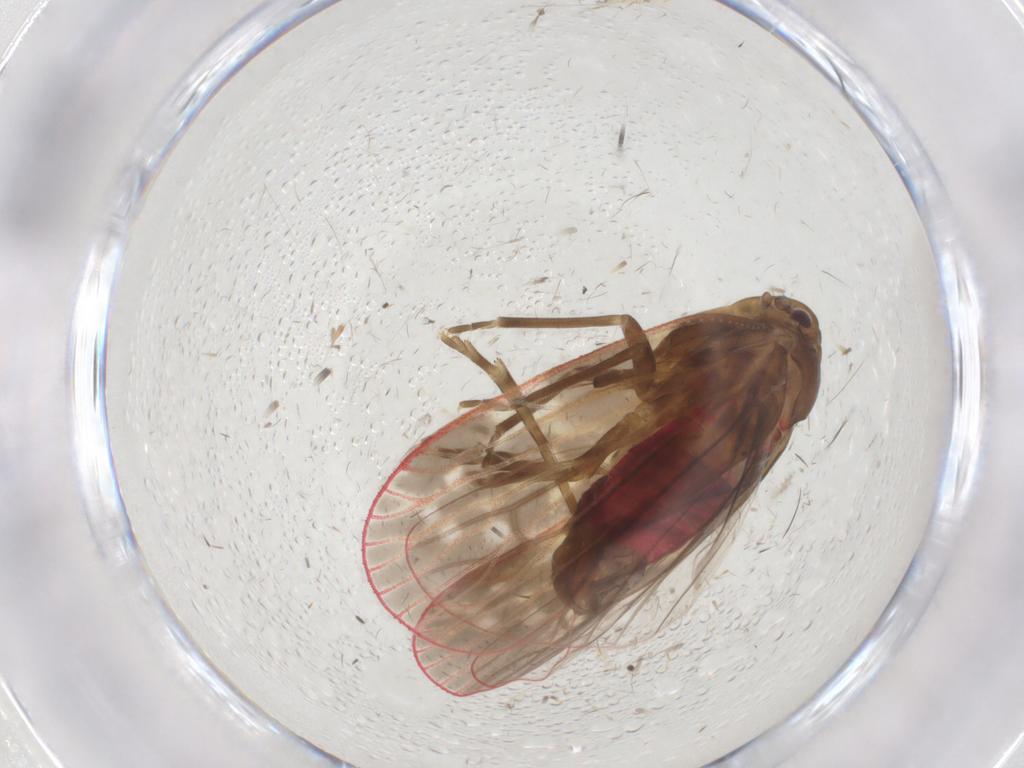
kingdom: Animalia
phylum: Arthropoda
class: Insecta
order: Hemiptera
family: Achilidae
